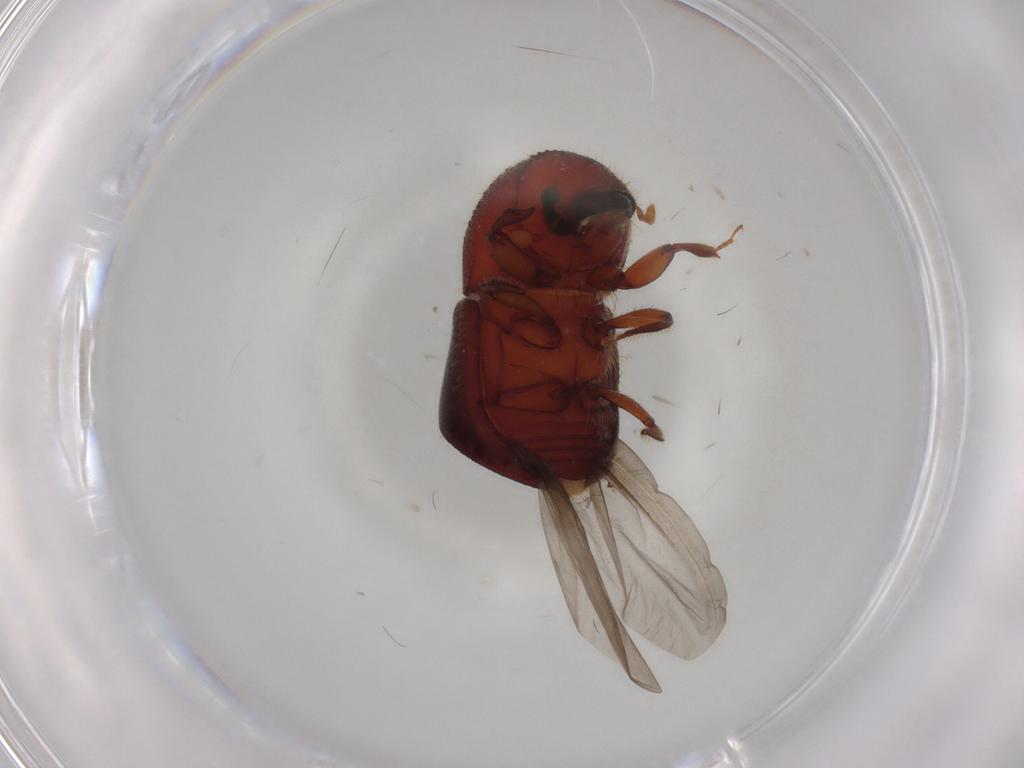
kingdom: Animalia
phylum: Arthropoda
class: Insecta
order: Coleoptera
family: Curculionidae
